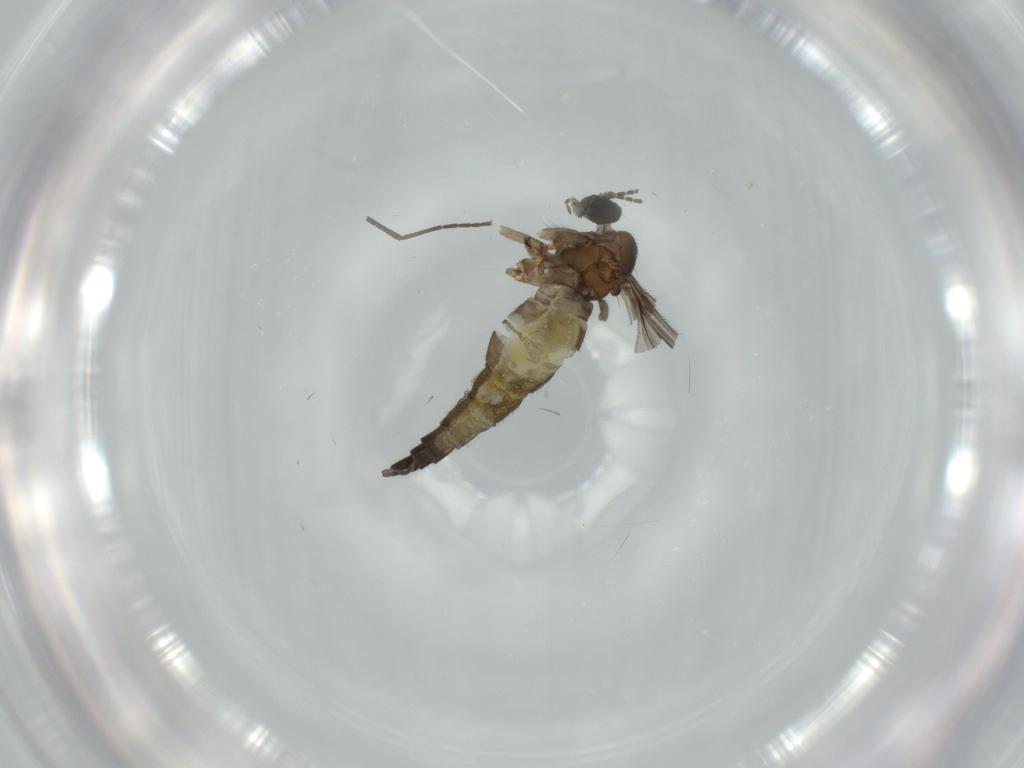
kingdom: Animalia
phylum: Arthropoda
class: Insecta
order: Diptera
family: Sciaridae
